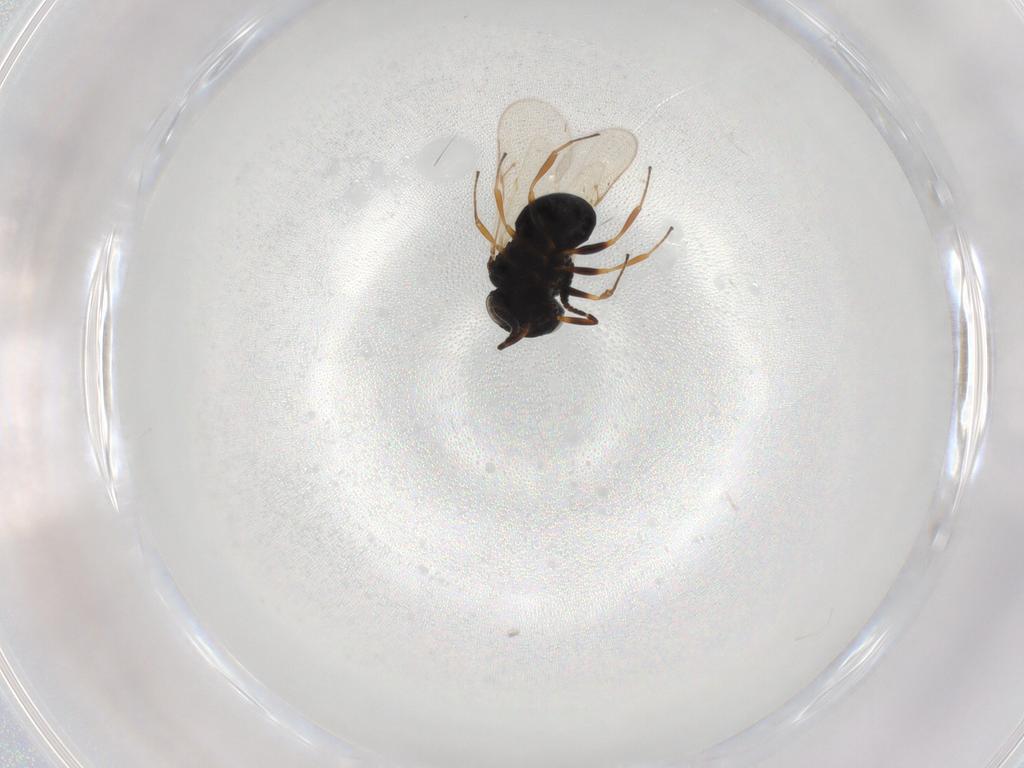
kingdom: Animalia
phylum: Arthropoda
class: Insecta
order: Hymenoptera
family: Scelionidae
